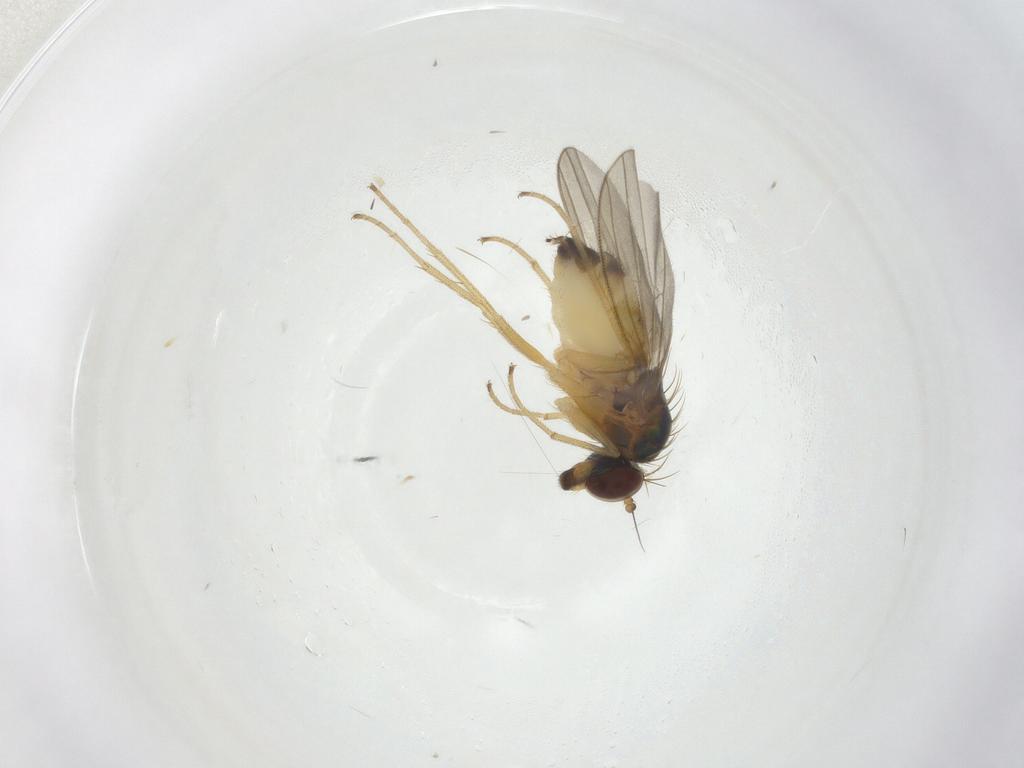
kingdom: Animalia
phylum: Arthropoda
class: Insecta
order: Diptera
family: Dolichopodidae
